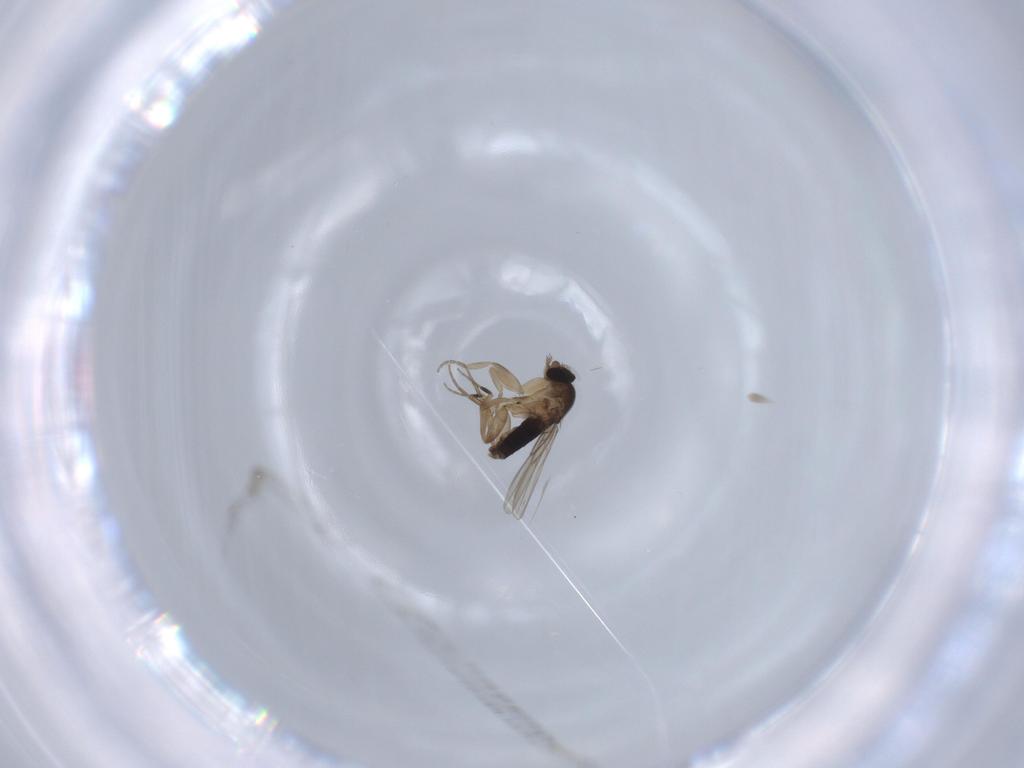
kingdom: Animalia
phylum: Arthropoda
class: Insecta
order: Diptera
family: Phoridae
